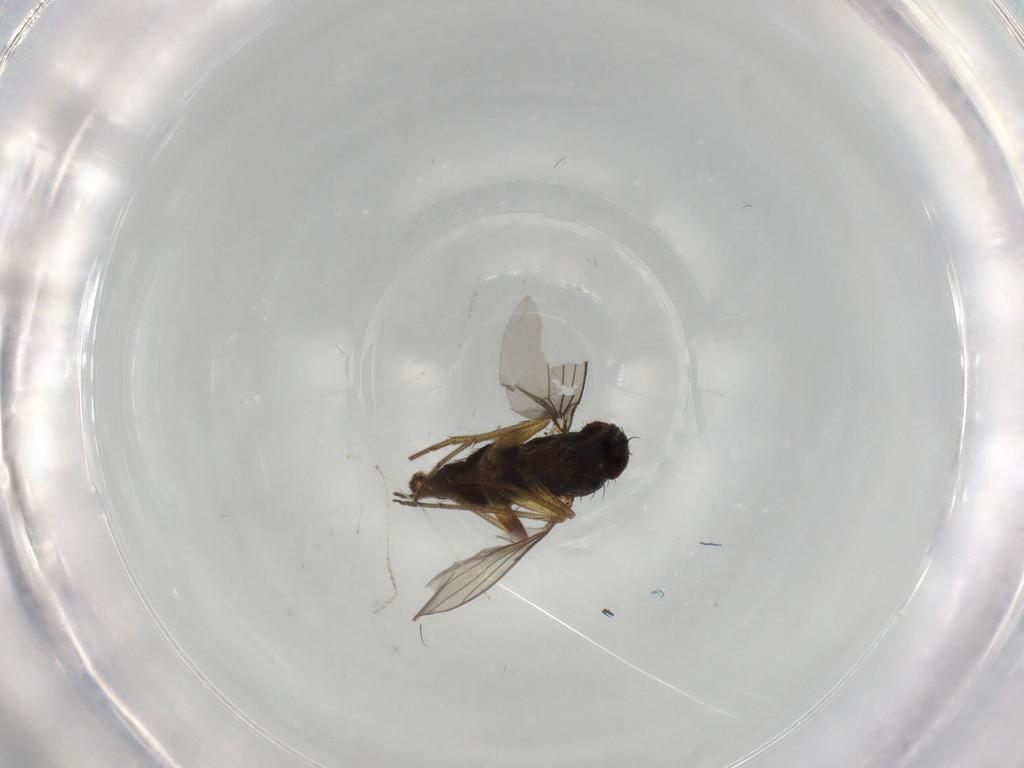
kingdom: Animalia
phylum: Arthropoda
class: Insecta
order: Diptera
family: Dolichopodidae
